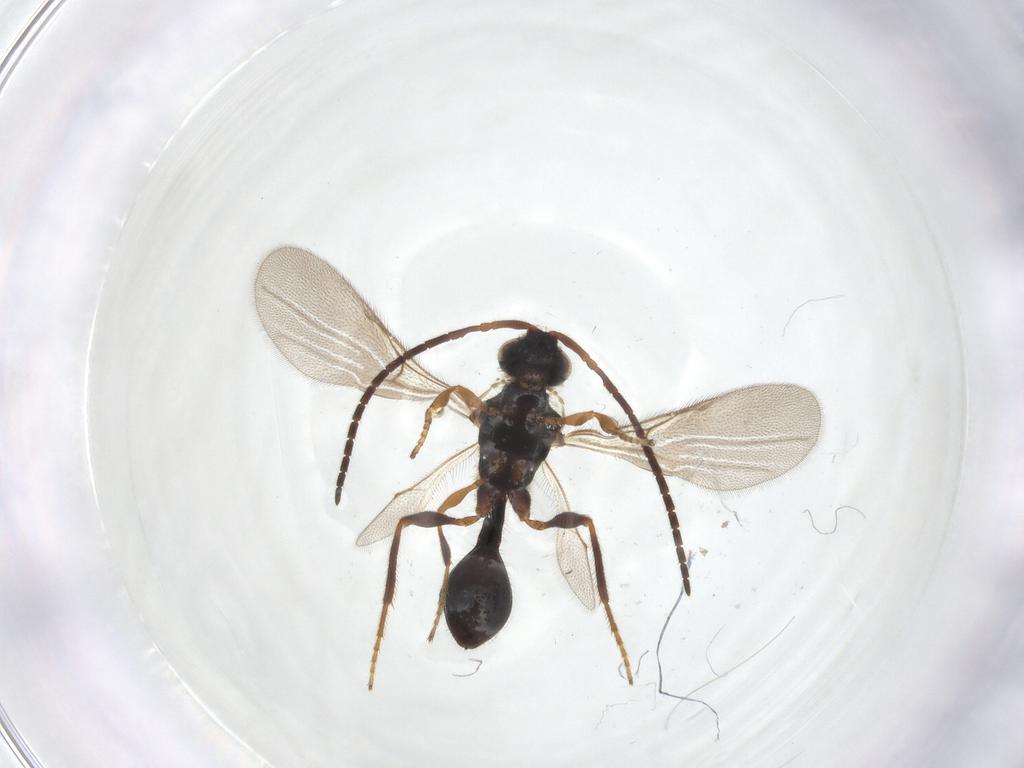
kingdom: Animalia
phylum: Arthropoda
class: Insecta
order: Hymenoptera
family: Diapriidae
